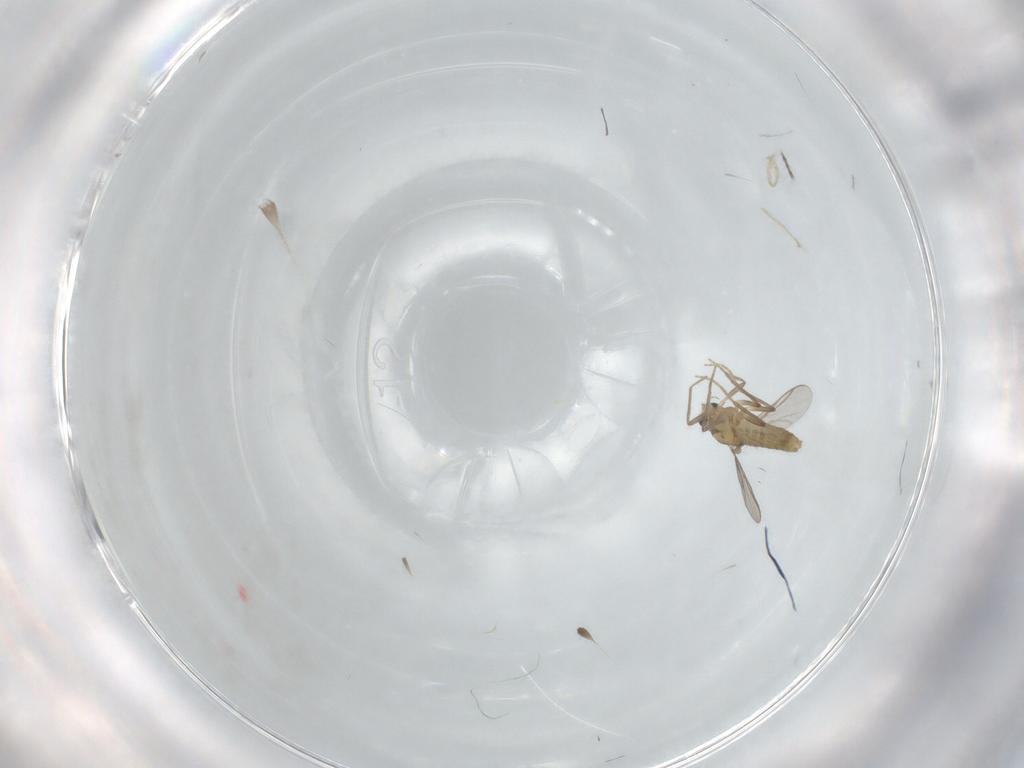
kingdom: Animalia
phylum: Arthropoda
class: Insecta
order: Diptera
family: Chironomidae
